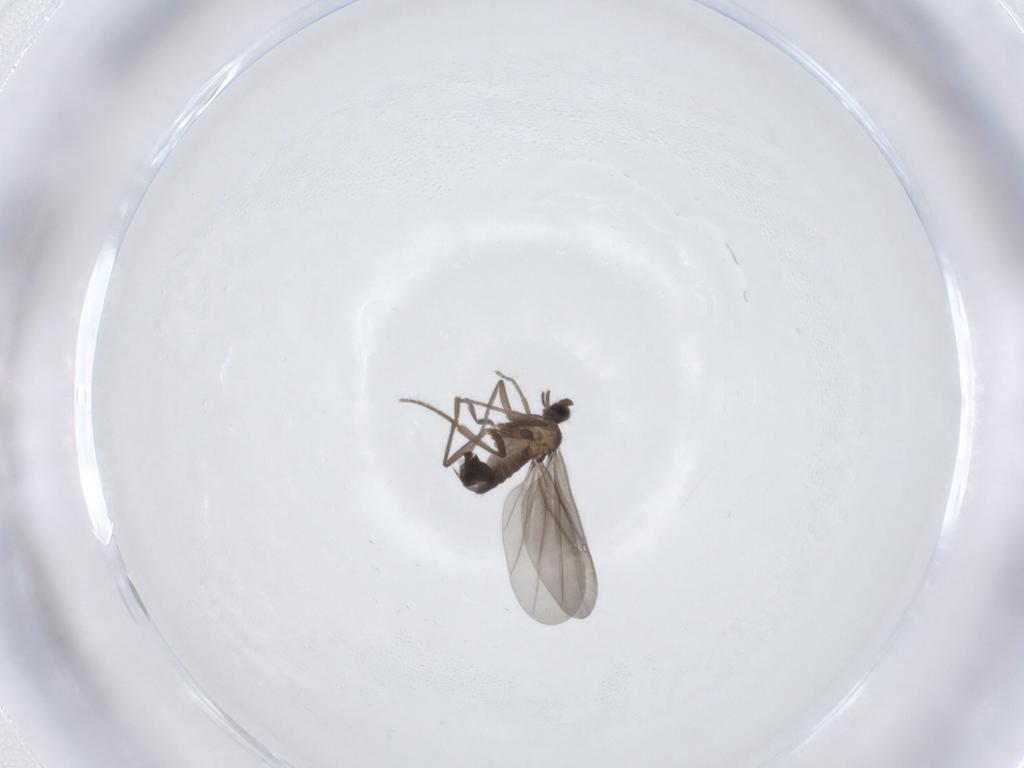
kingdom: Animalia
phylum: Arthropoda
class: Insecta
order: Diptera
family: Phoridae
